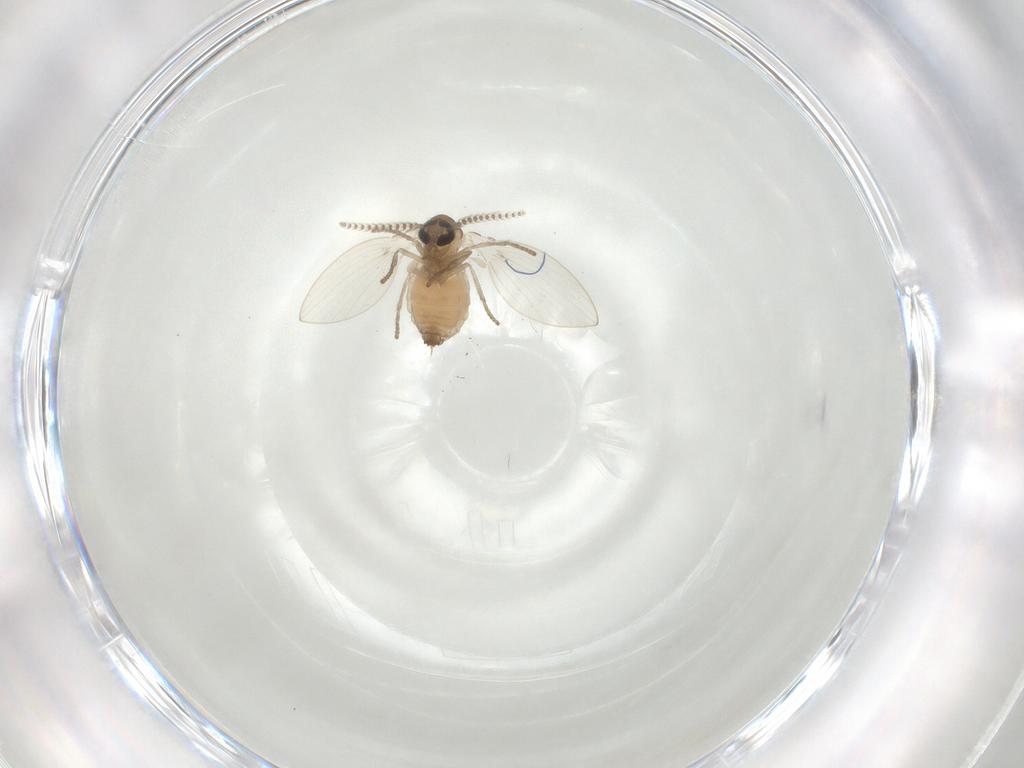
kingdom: Animalia
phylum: Arthropoda
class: Insecta
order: Diptera
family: Psychodidae
